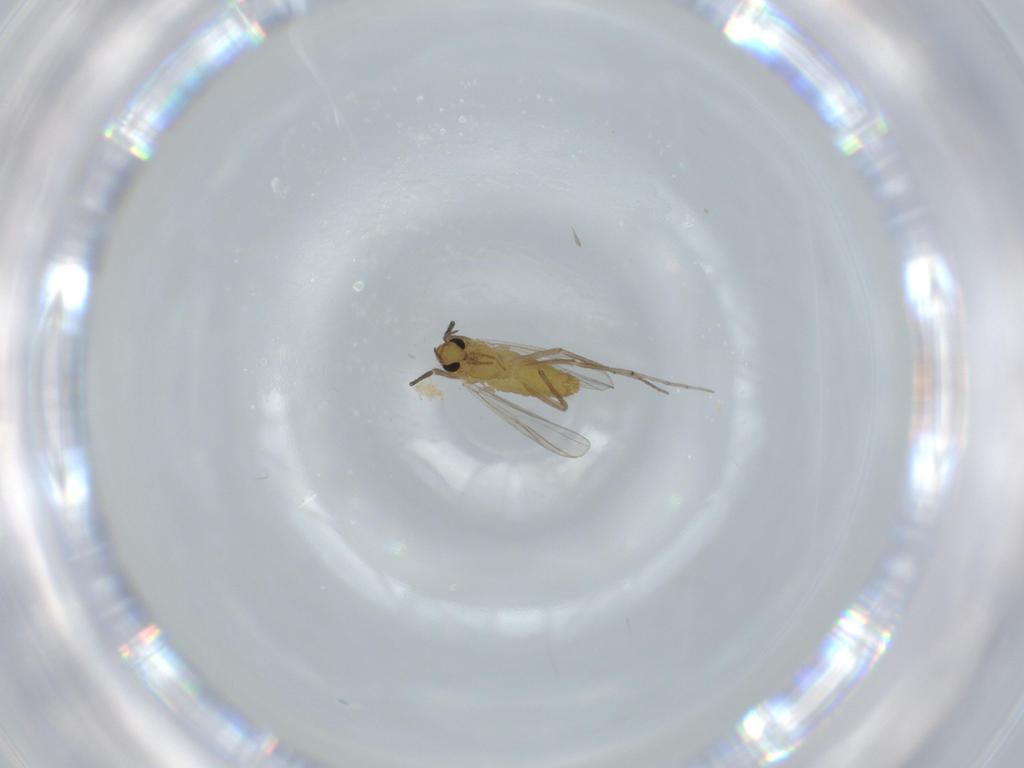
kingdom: Animalia
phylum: Arthropoda
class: Insecta
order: Diptera
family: Chironomidae
